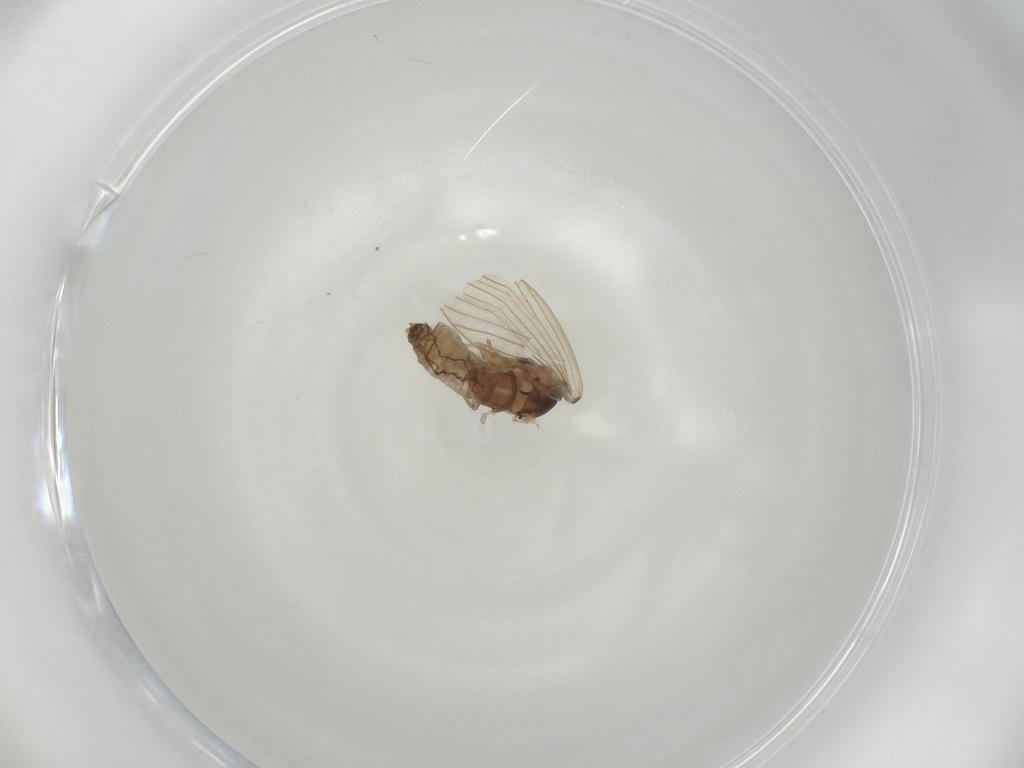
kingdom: Animalia
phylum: Arthropoda
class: Insecta
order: Diptera
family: Psychodidae
